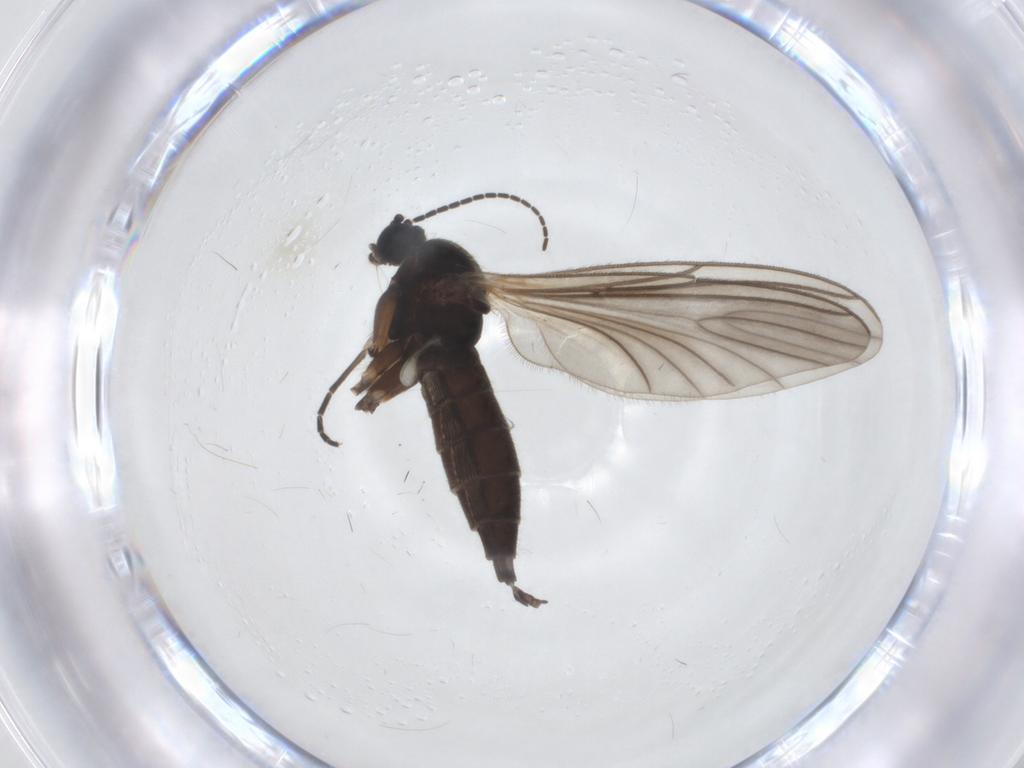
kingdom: Animalia
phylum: Arthropoda
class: Insecta
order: Diptera
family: Sciaridae
